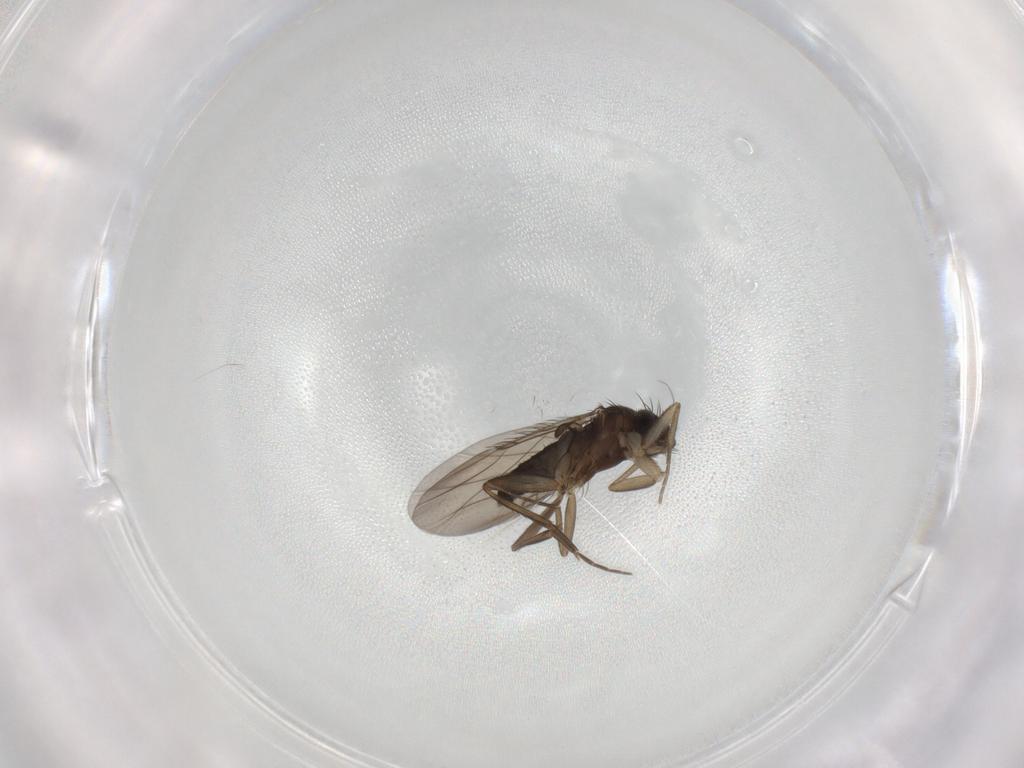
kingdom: Animalia
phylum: Arthropoda
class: Insecta
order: Diptera
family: Phoridae
